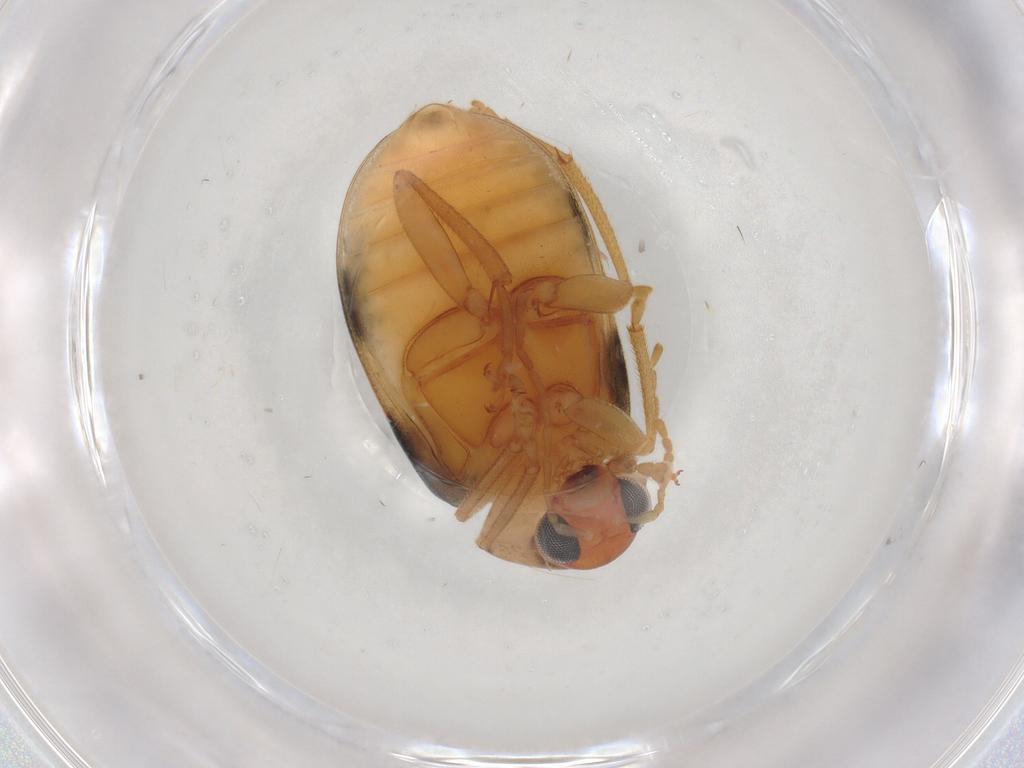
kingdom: Animalia
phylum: Arthropoda
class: Insecta
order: Coleoptera
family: Chrysomelidae
